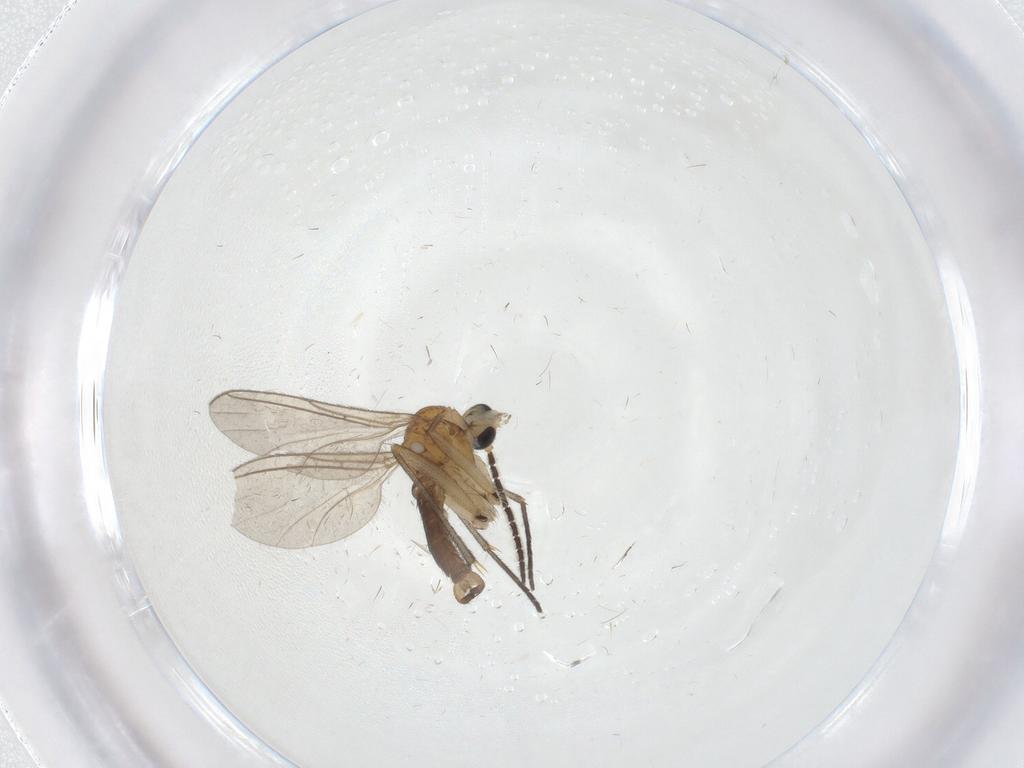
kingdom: Animalia
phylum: Arthropoda
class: Insecta
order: Diptera
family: Sciaridae
